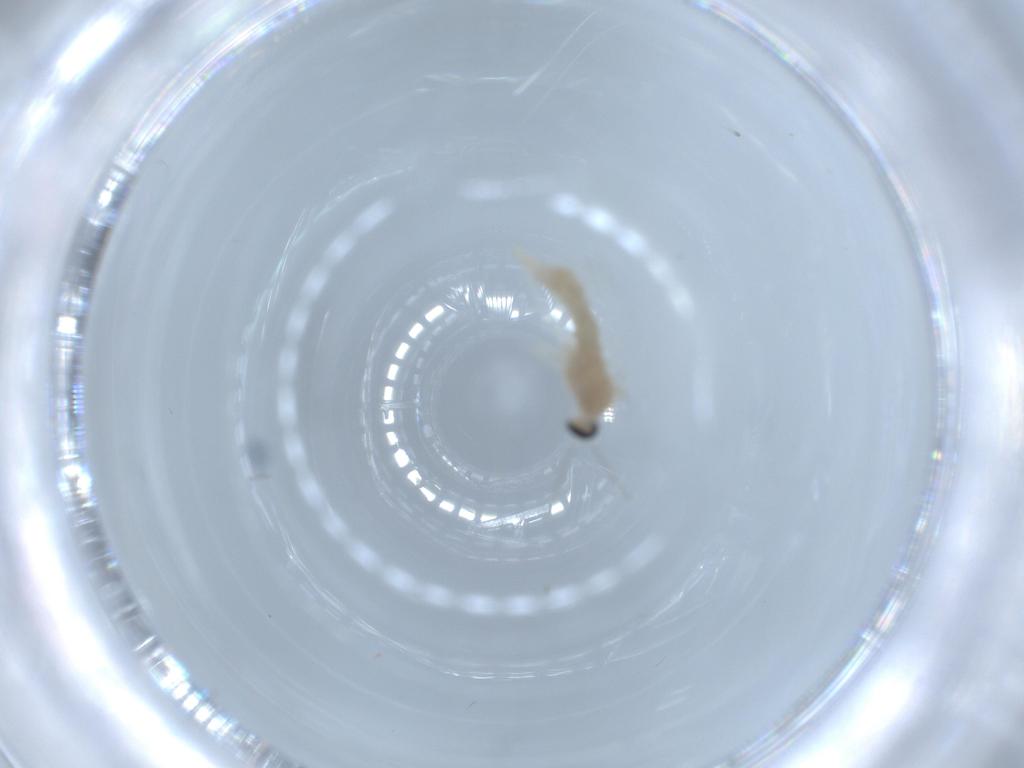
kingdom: Animalia
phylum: Arthropoda
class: Insecta
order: Diptera
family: Cecidomyiidae
